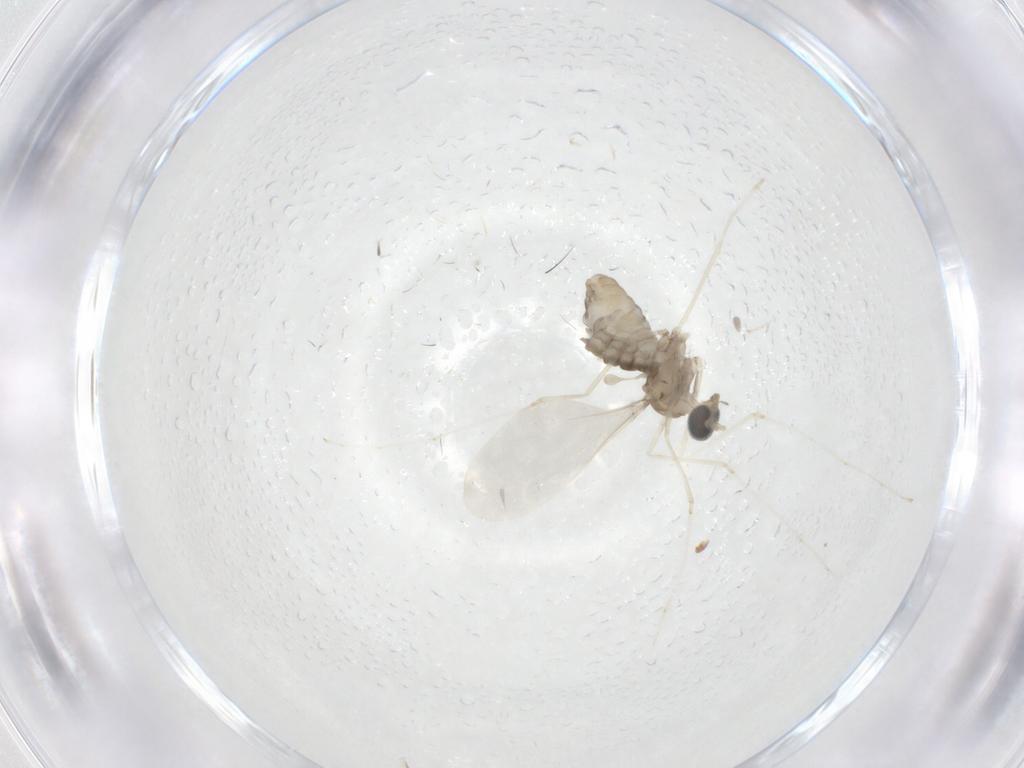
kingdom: Animalia
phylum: Arthropoda
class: Insecta
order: Diptera
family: Cecidomyiidae
